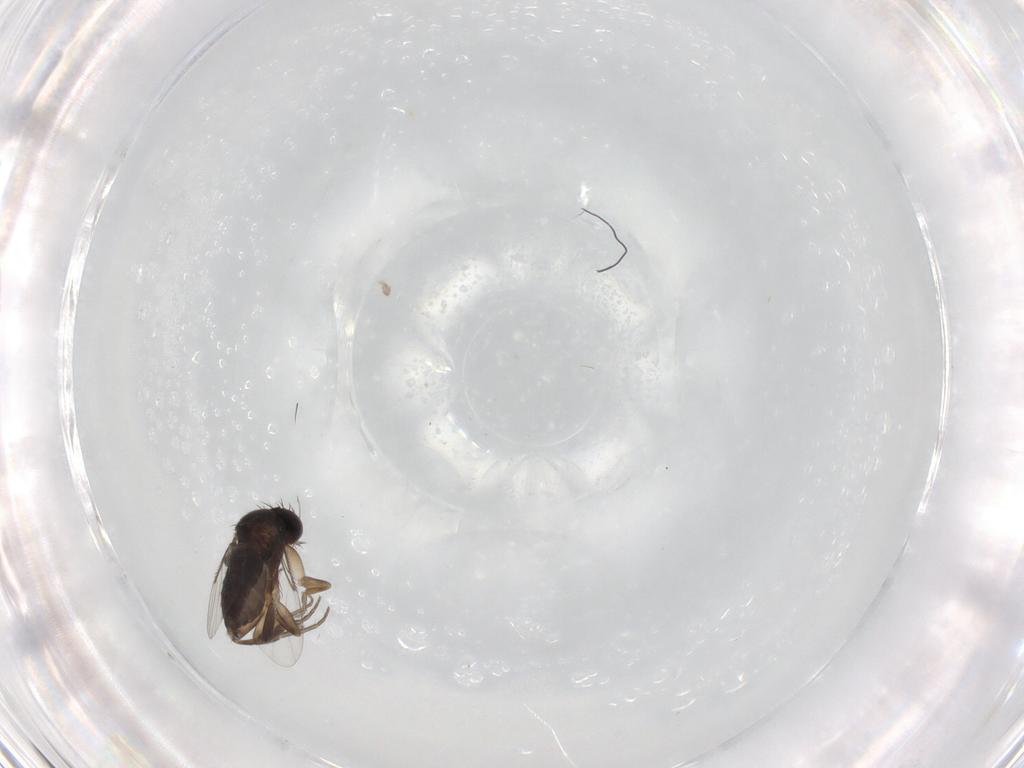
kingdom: Animalia
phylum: Arthropoda
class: Insecta
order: Diptera
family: Phoridae
